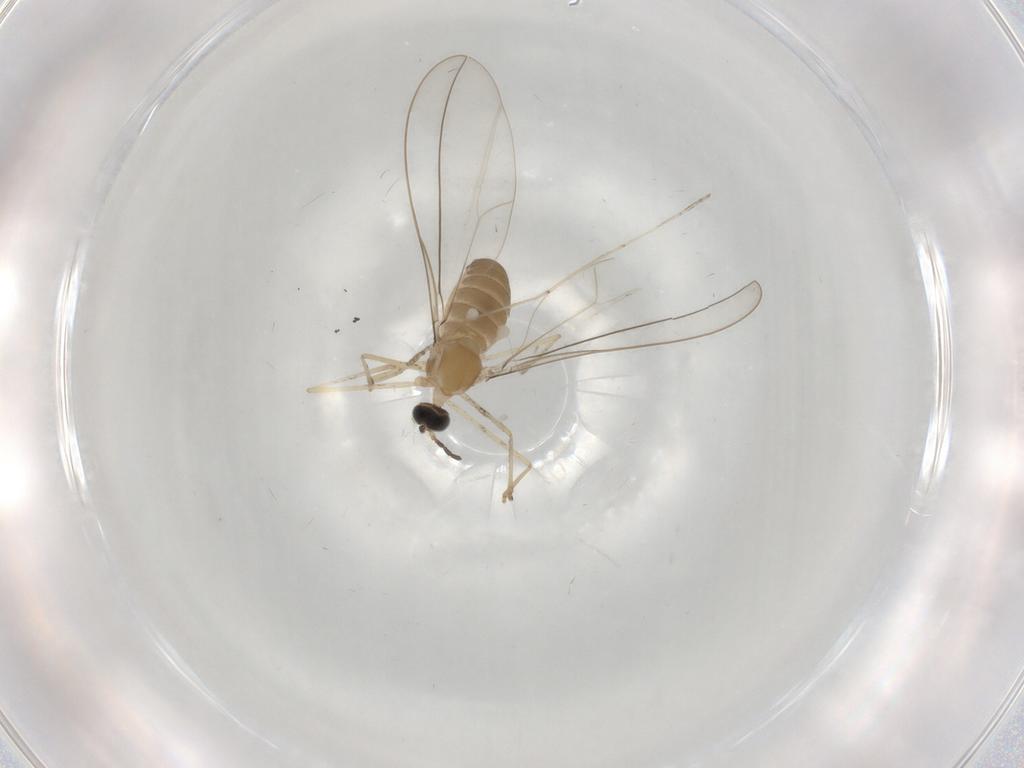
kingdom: Animalia
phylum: Arthropoda
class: Insecta
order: Diptera
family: Cecidomyiidae
